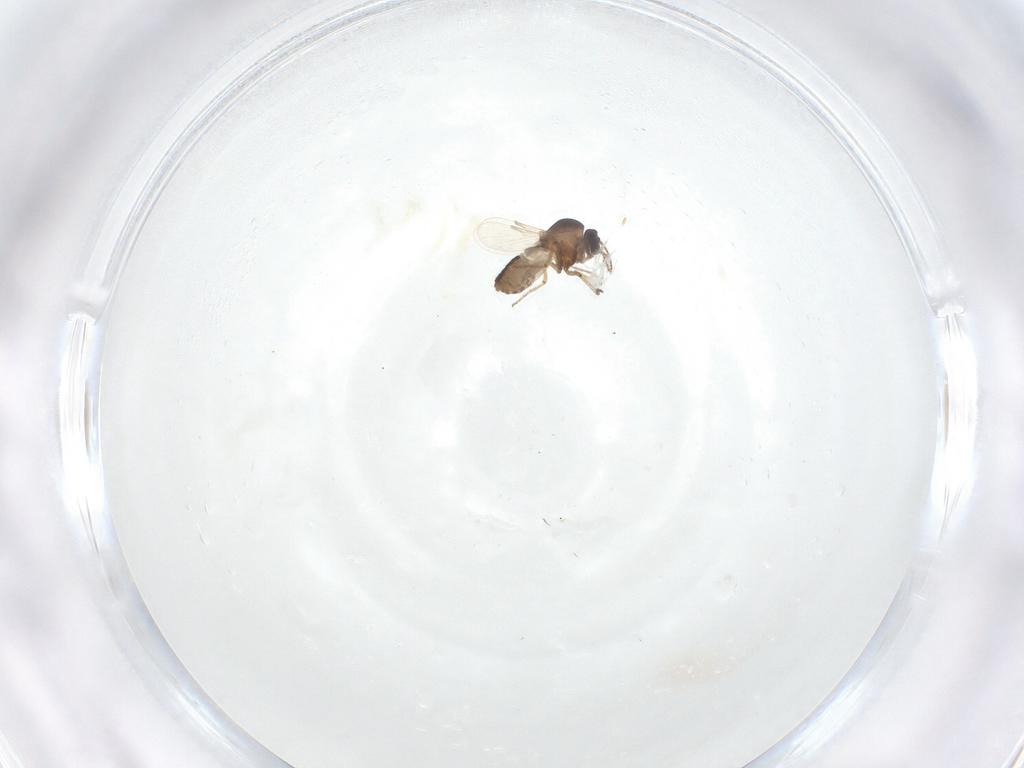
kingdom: Animalia
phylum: Arthropoda
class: Insecta
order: Diptera
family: Ceratopogonidae
